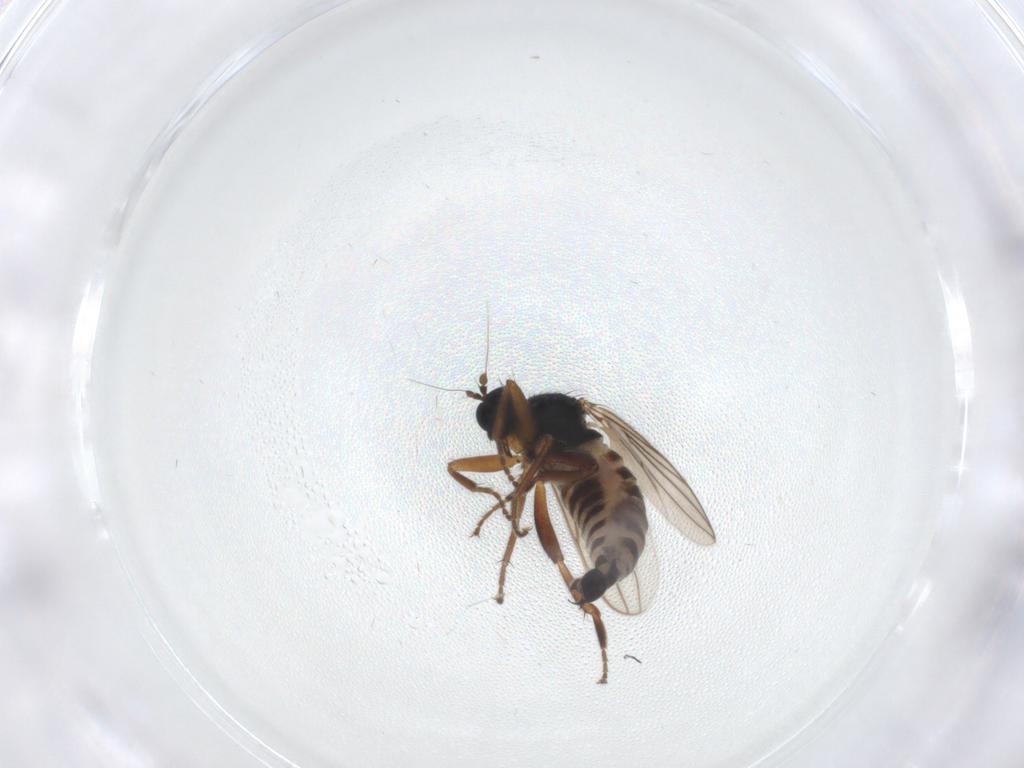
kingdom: Animalia
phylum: Arthropoda
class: Insecta
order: Diptera
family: Hybotidae
